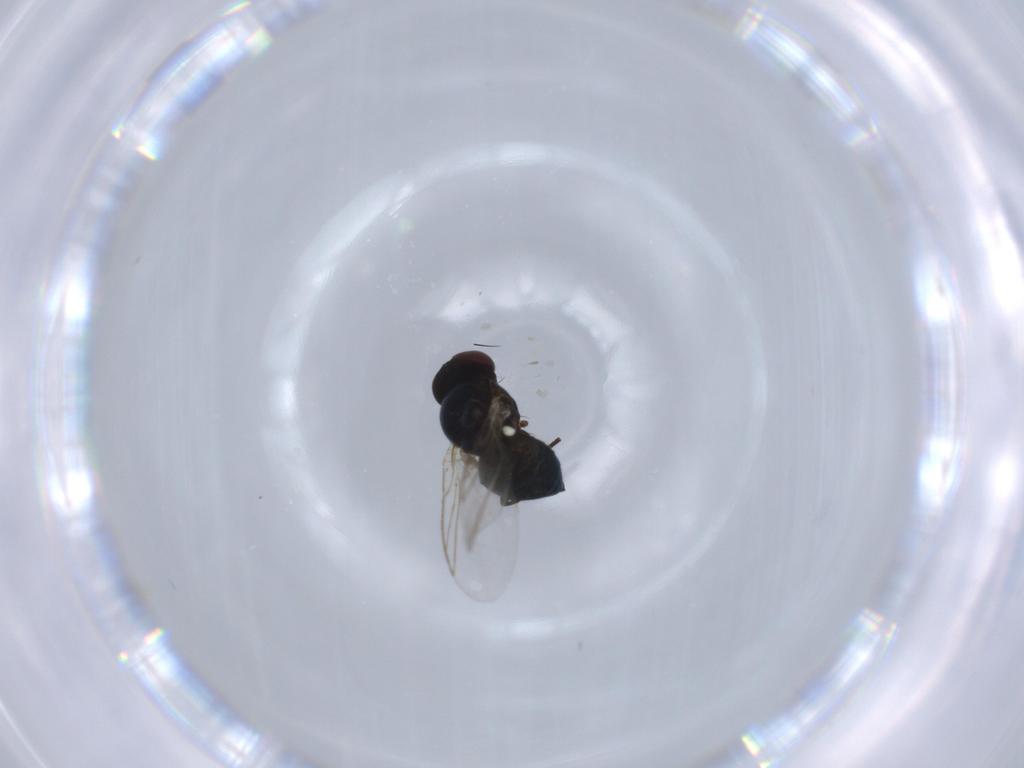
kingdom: Animalia
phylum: Arthropoda
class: Insecta
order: Diptera
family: Agromyzidae
